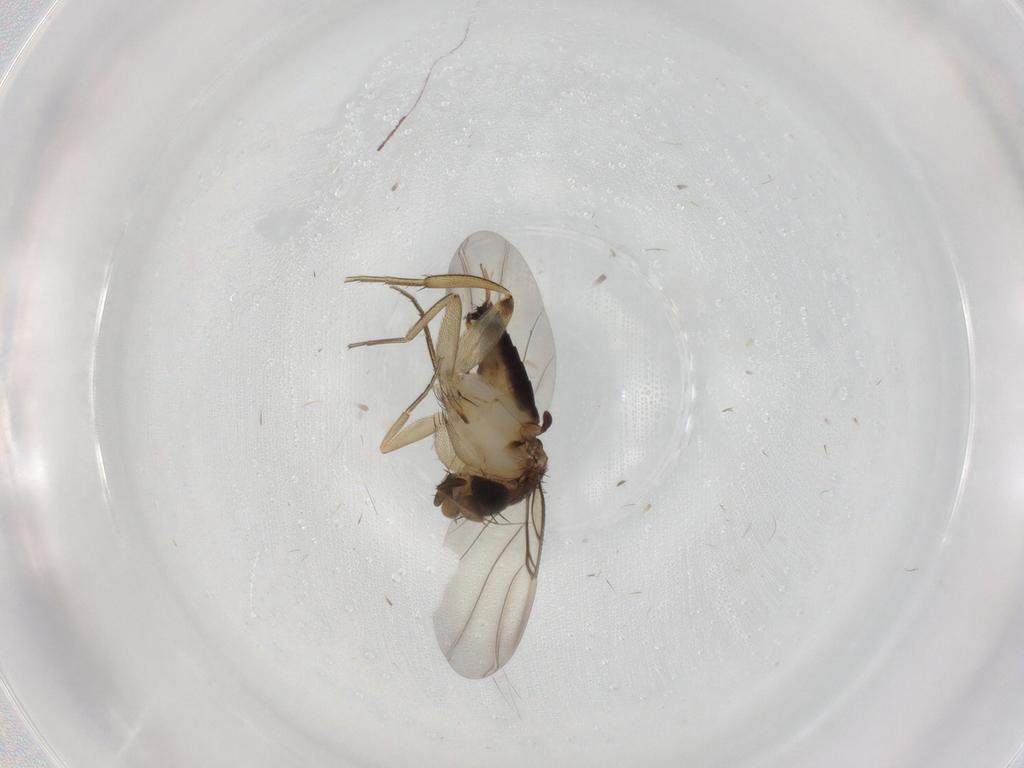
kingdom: Animalia
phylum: Arthropoda
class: Insecta
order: Diptera
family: Phoridae
